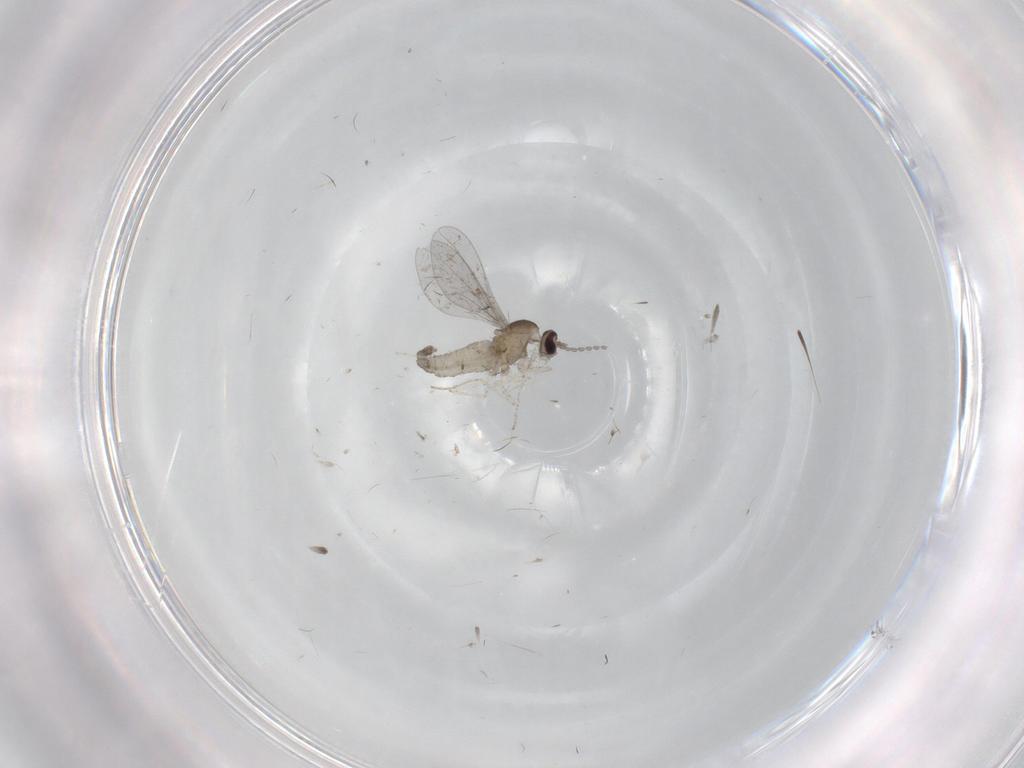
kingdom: Animalia
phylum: Arthropoda
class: Insecta
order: Diptera
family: Cecidomyiidae
